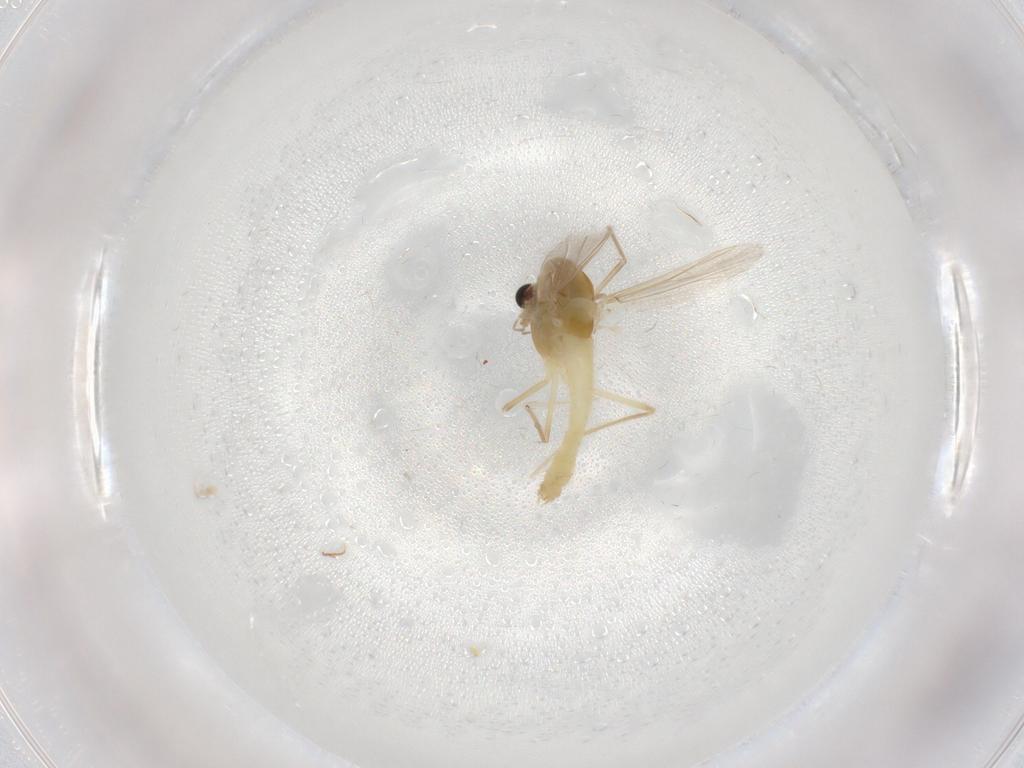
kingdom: Animalia
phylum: Arthropoda
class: Insecta
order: Diptera
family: Chironomidae
